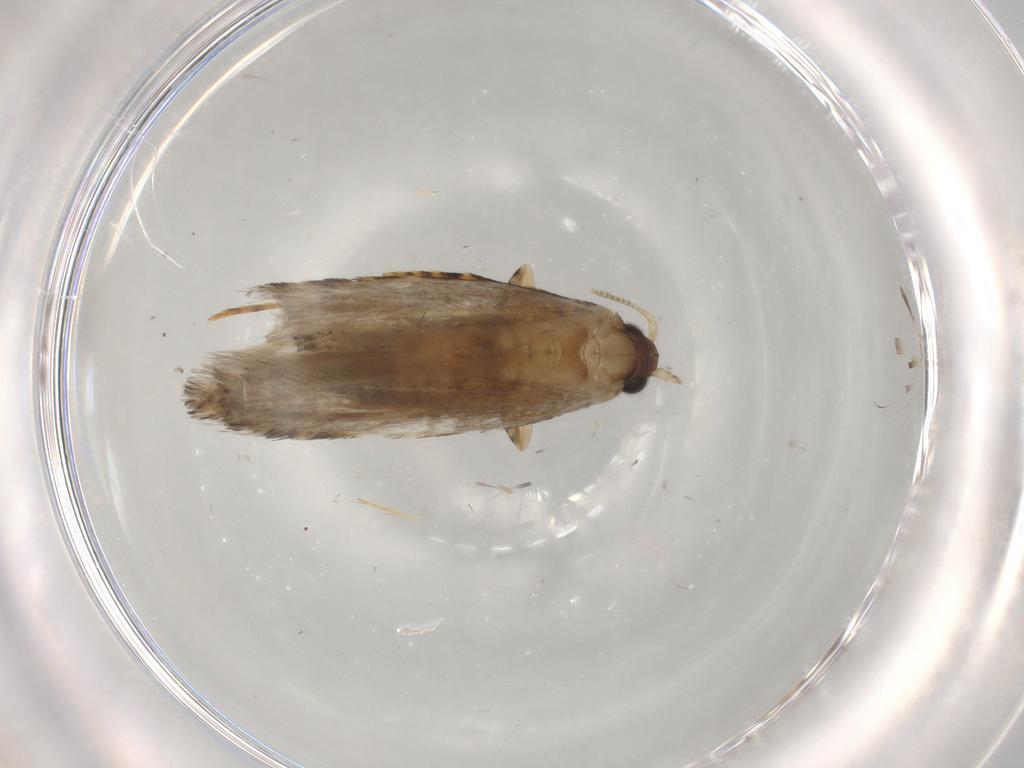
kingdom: Animalia
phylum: Arthropoda
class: Insecta
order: Lepidoptera
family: Tineidae
